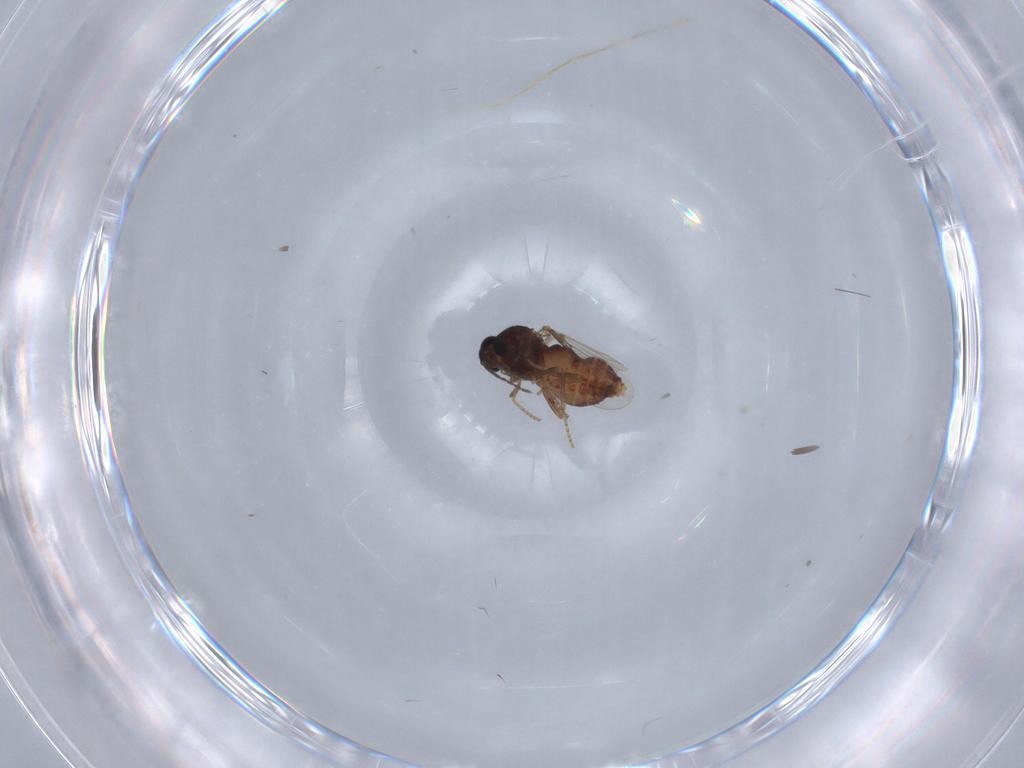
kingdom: Animalia
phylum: Arthropoda
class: Insecta
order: Diptera
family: Ceratopogonidae
